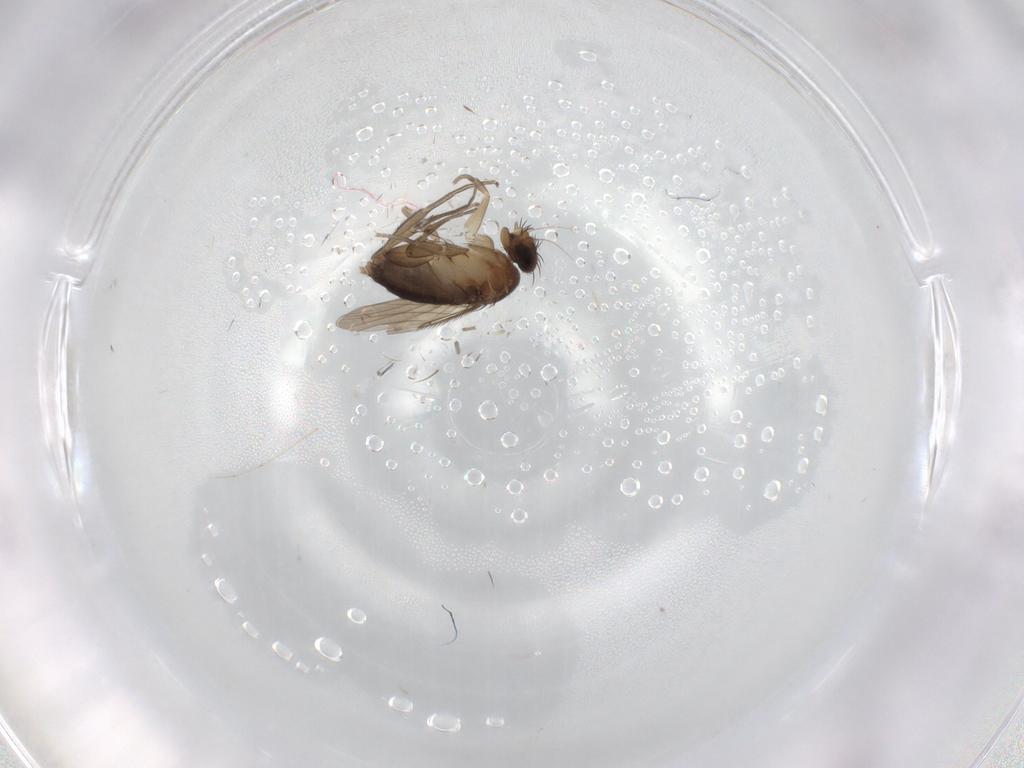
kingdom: Animalia
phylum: Arthropoda
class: Insecta
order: Diptera
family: Phoridae
